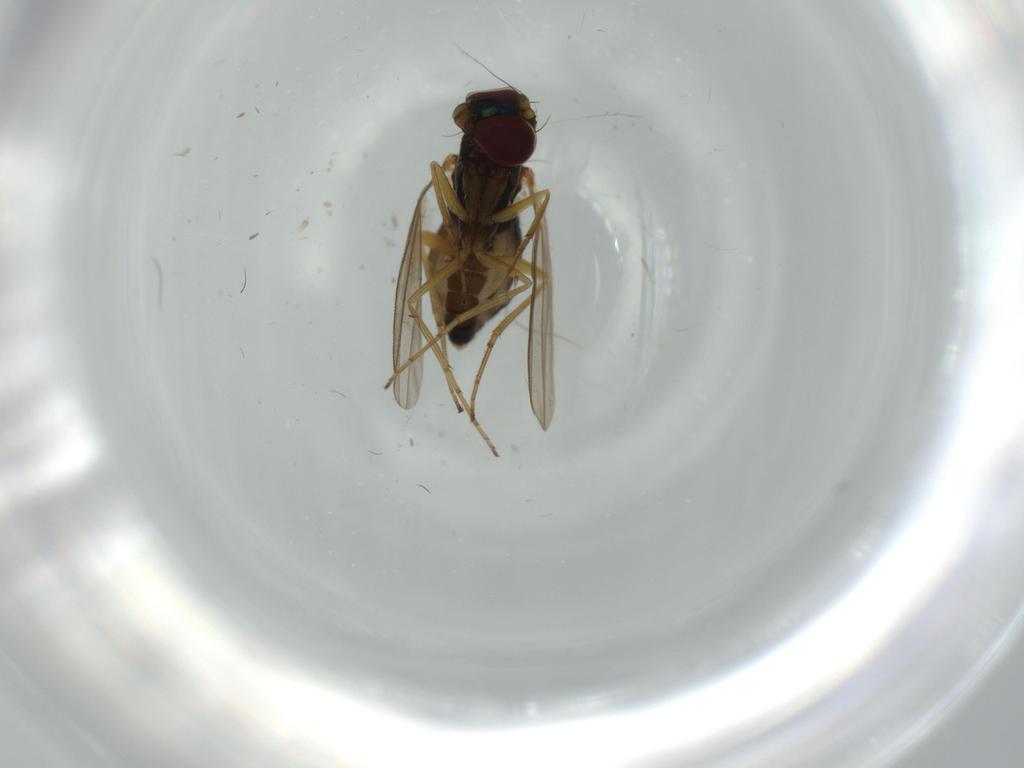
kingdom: Animalia
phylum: Arthropoda
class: Insecta
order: Diptera
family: Dolichopodidae
